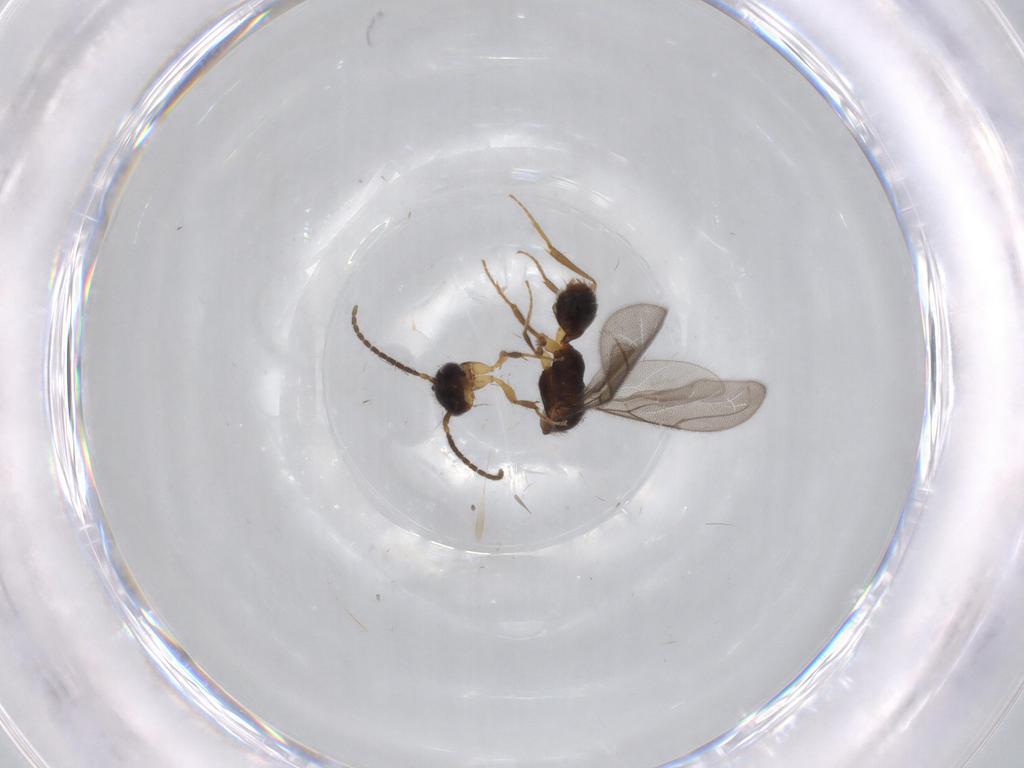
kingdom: Animalia
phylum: Arthropoda
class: Insecta
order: Hymenoptera
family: Bethylidae
